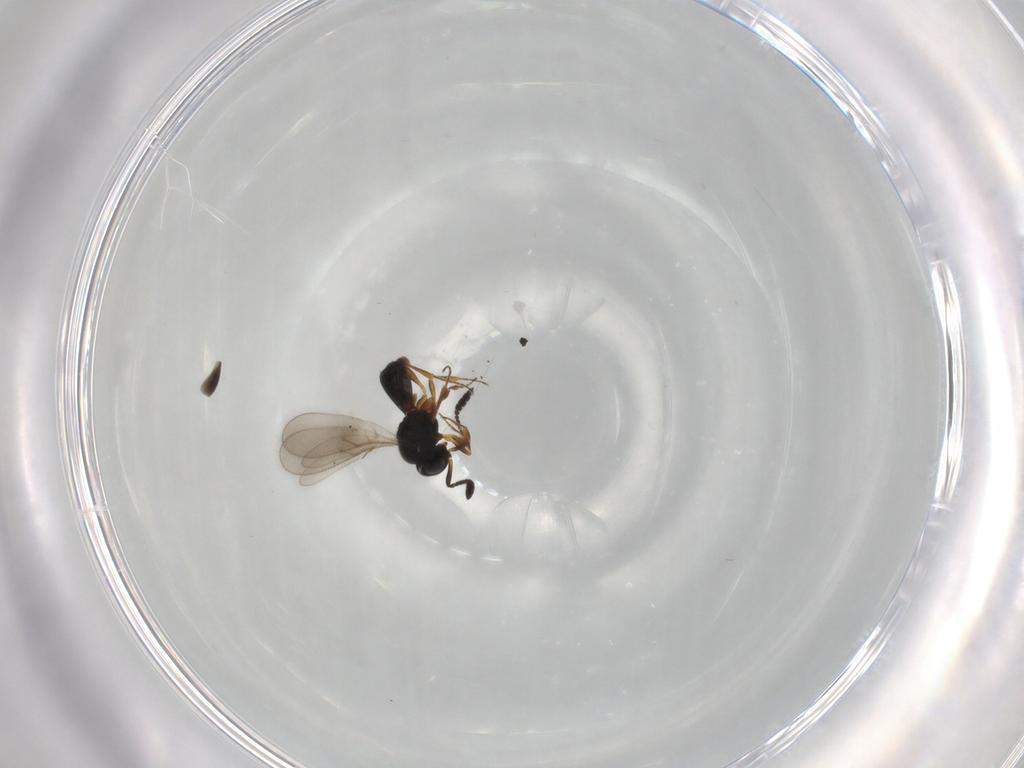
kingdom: Animalia
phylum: Arthropoda
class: Insecta
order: Hymenoptera
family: Scelionidae
